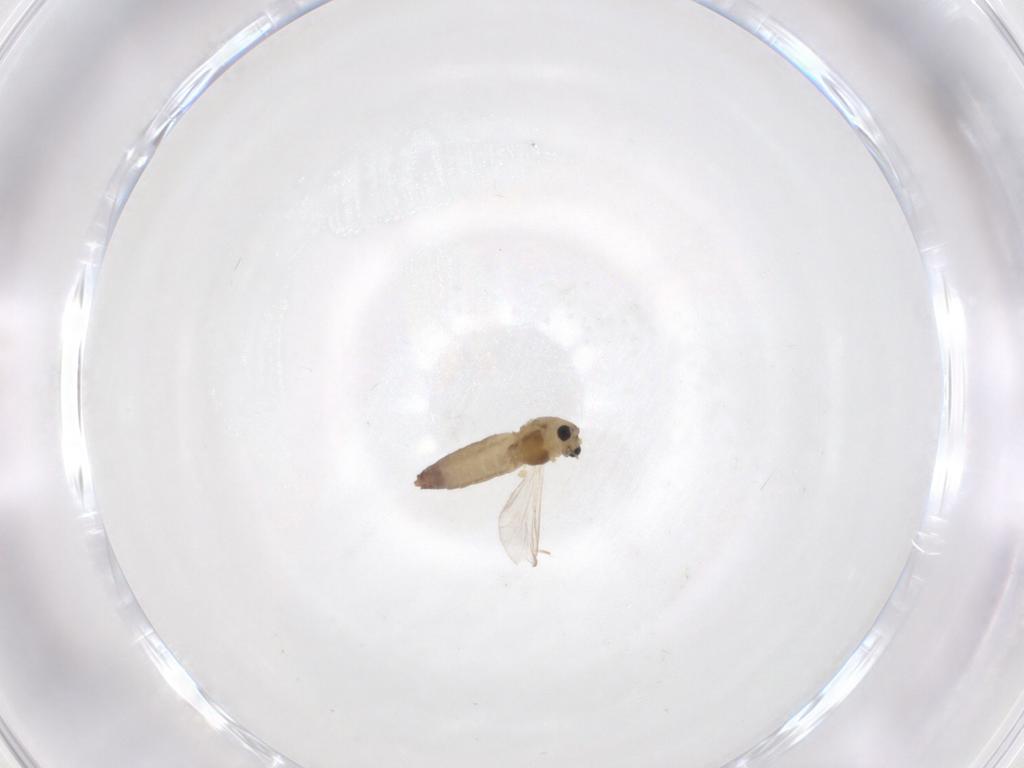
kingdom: Animalia
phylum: Arthropoda
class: Insecta
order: Diptera
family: Chironomidae
